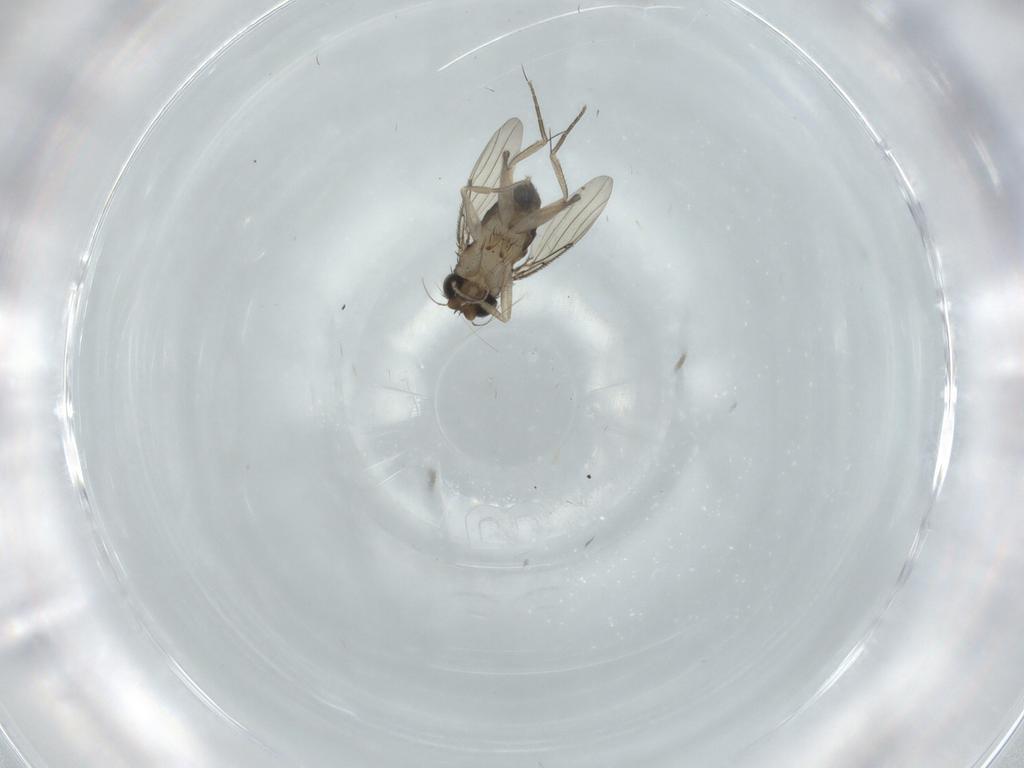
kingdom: Animalia
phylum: Arthropoda
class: Insecta
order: Diptera
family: Phoridae
